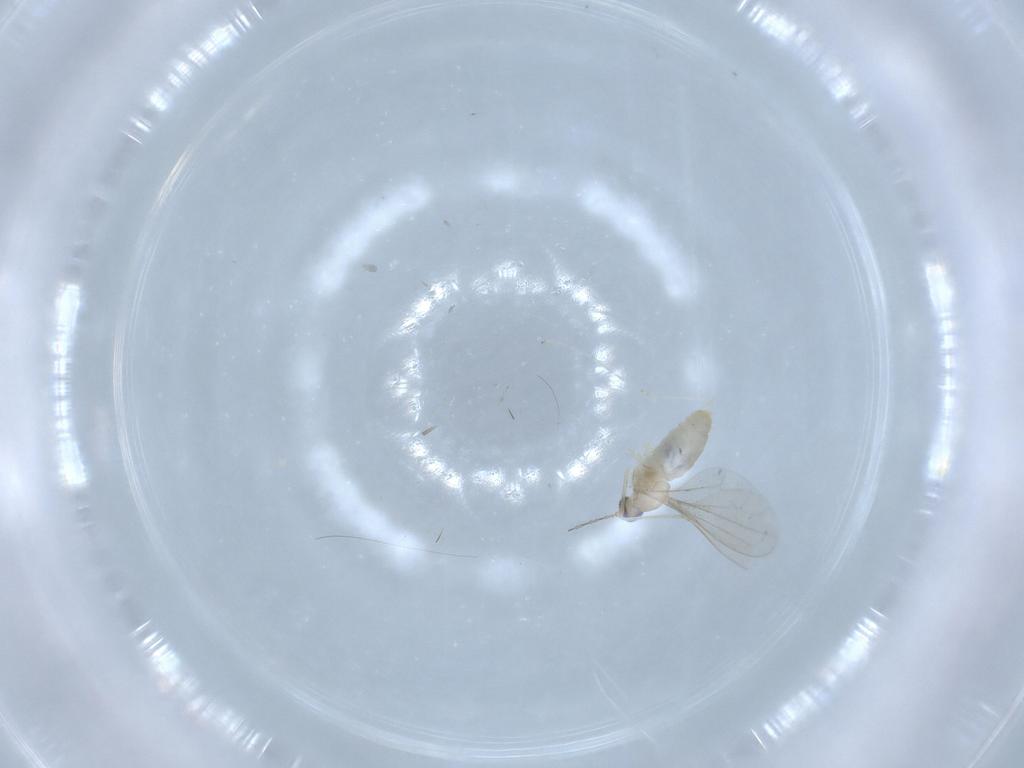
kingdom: Animalia
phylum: Arthropoda
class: Insecta
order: Diptera
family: Cecidomyiidae
